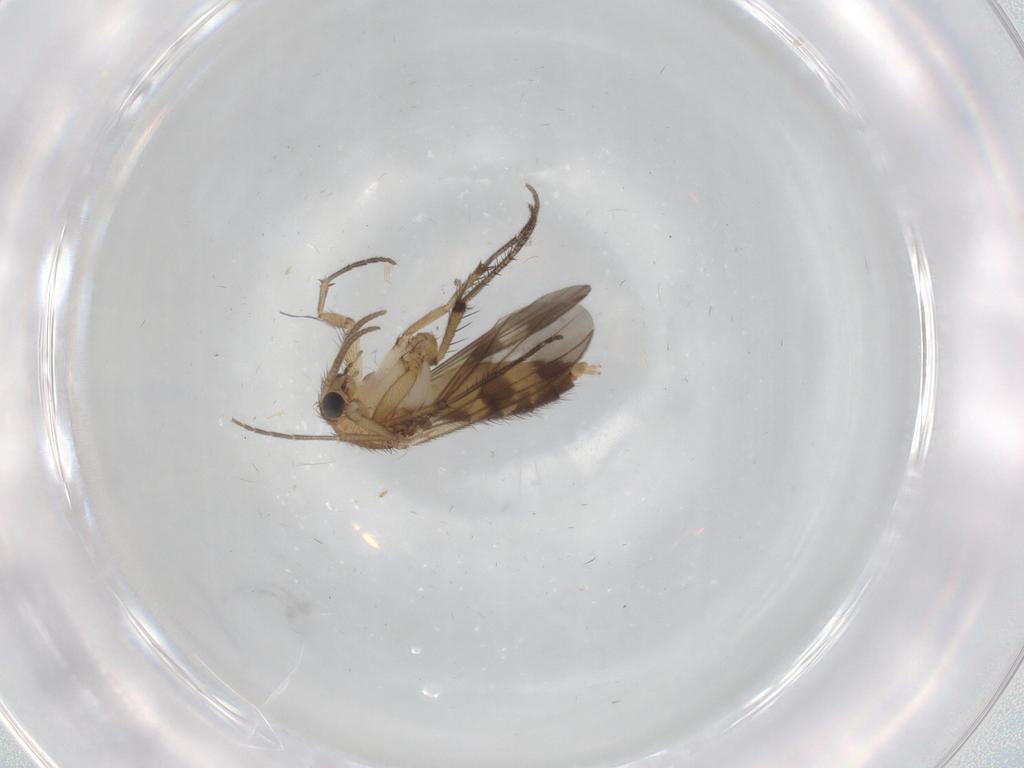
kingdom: Animalia
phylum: Arthropoda
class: Insecta
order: Diptera
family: Mycetophilidae
